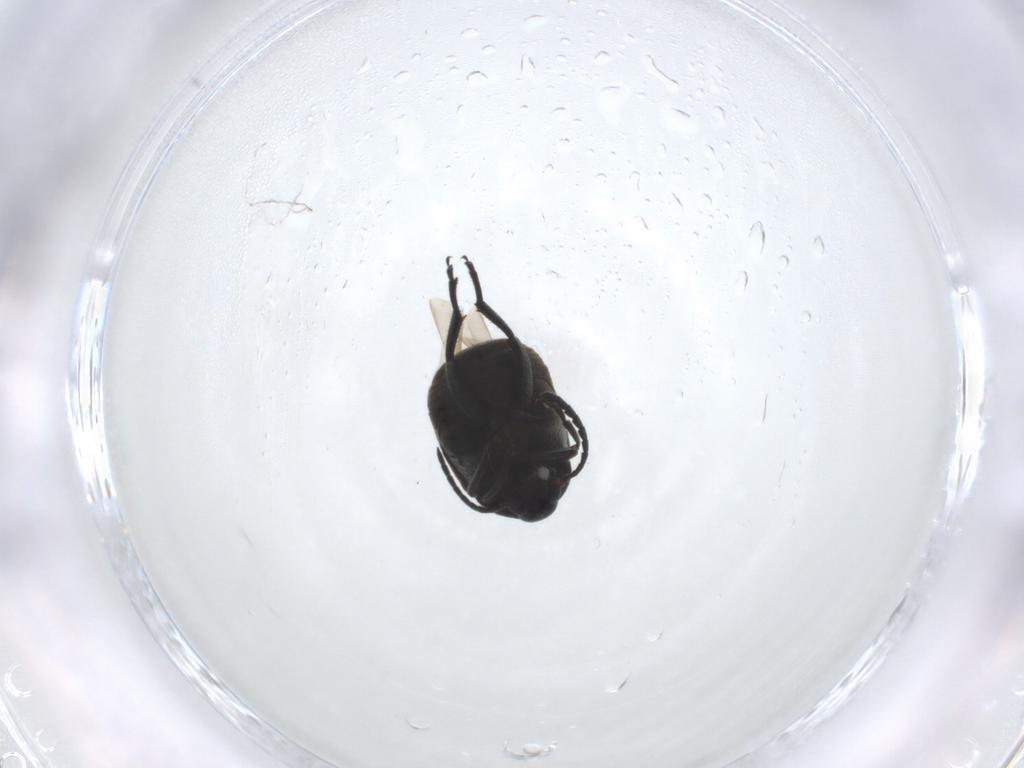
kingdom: Animalia
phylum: Arthropoda
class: Insecta
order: Coleoptera
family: Chrysomelidae
